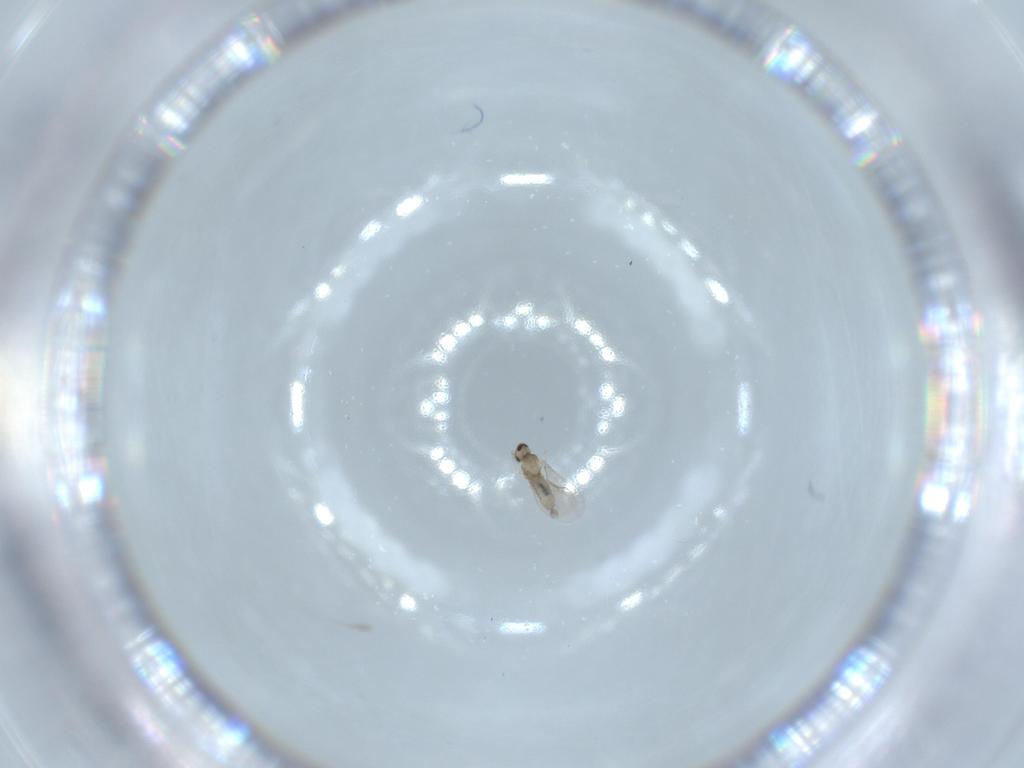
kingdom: Animalia
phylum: Arthropoda
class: Insecta
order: Diptera
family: Cecidomyiidae
